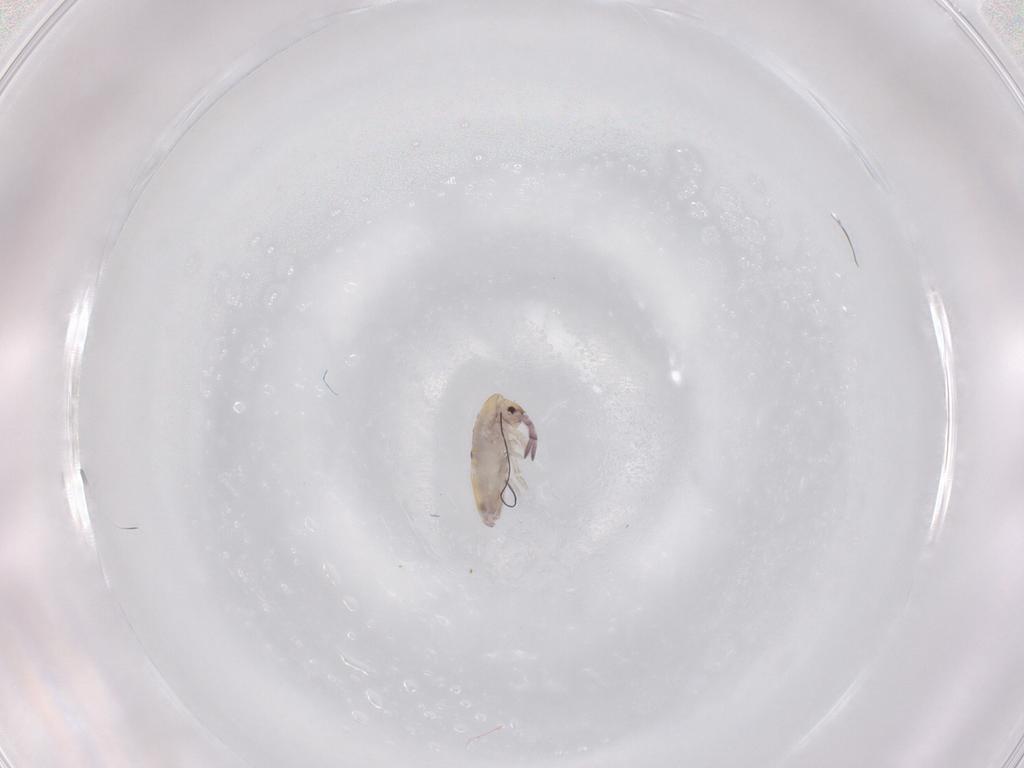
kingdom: Animalia
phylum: Arthropoda
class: Collembola
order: Entomobryomorpha
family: Entomobryidae
